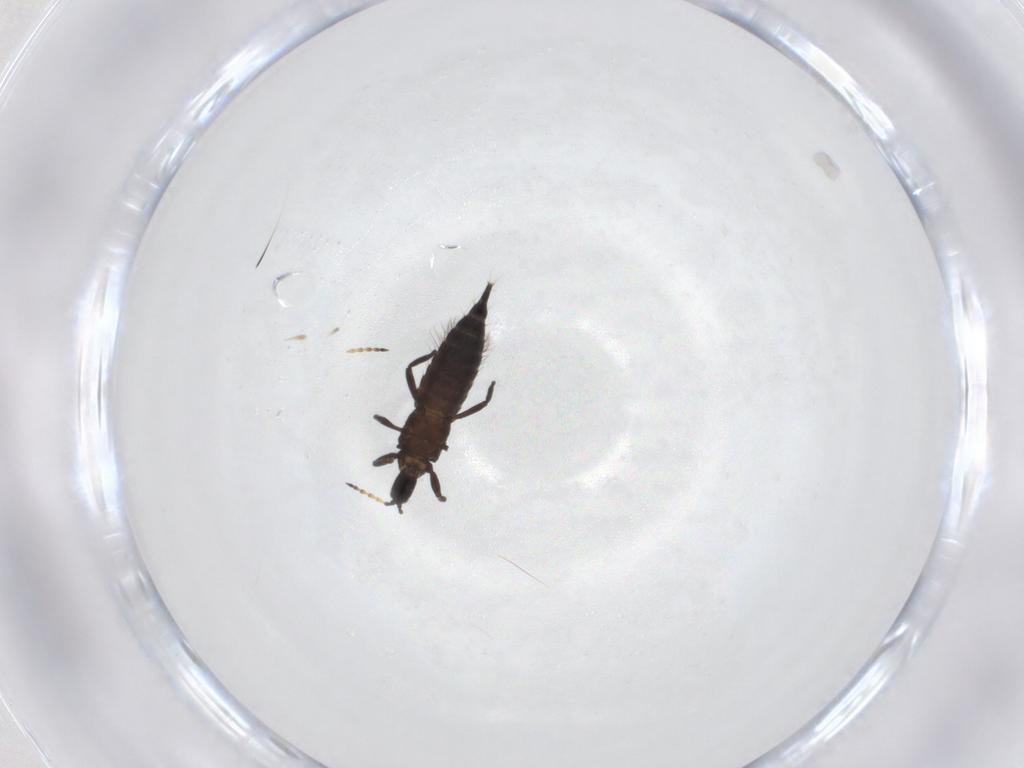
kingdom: Animalia
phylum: Arthropoda
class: Insecta
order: Thysanoptera
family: Phlaeothripidae
